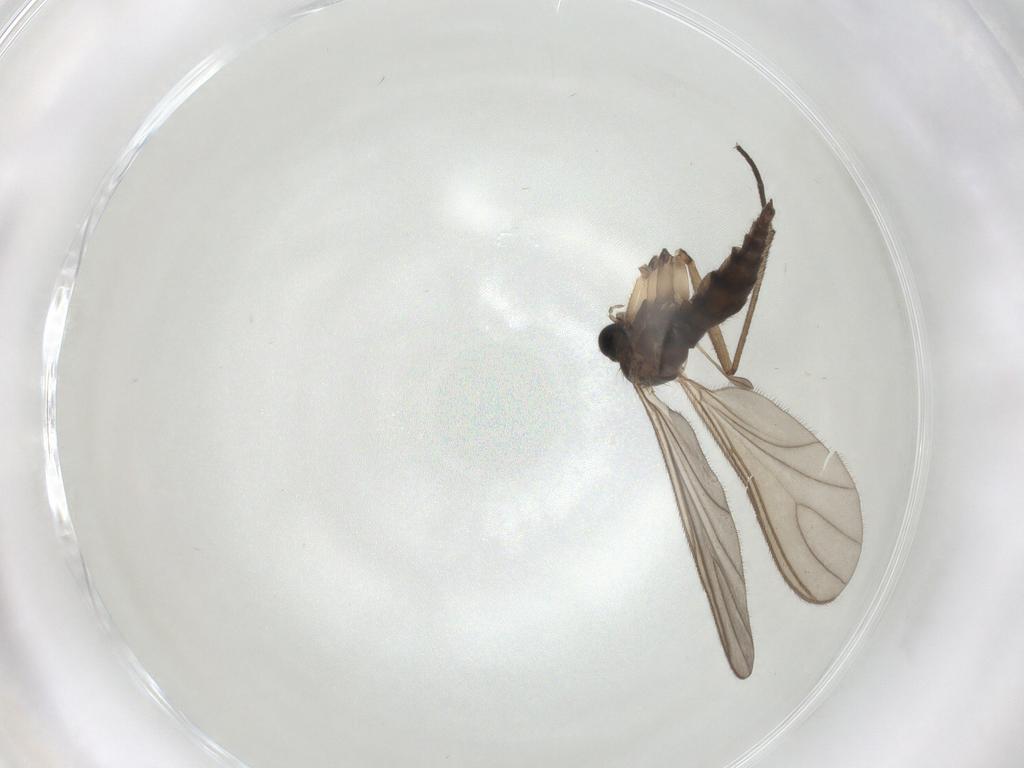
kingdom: Animalia
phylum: Arthropoda
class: Insecta
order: Diptera
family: Sciaridae
